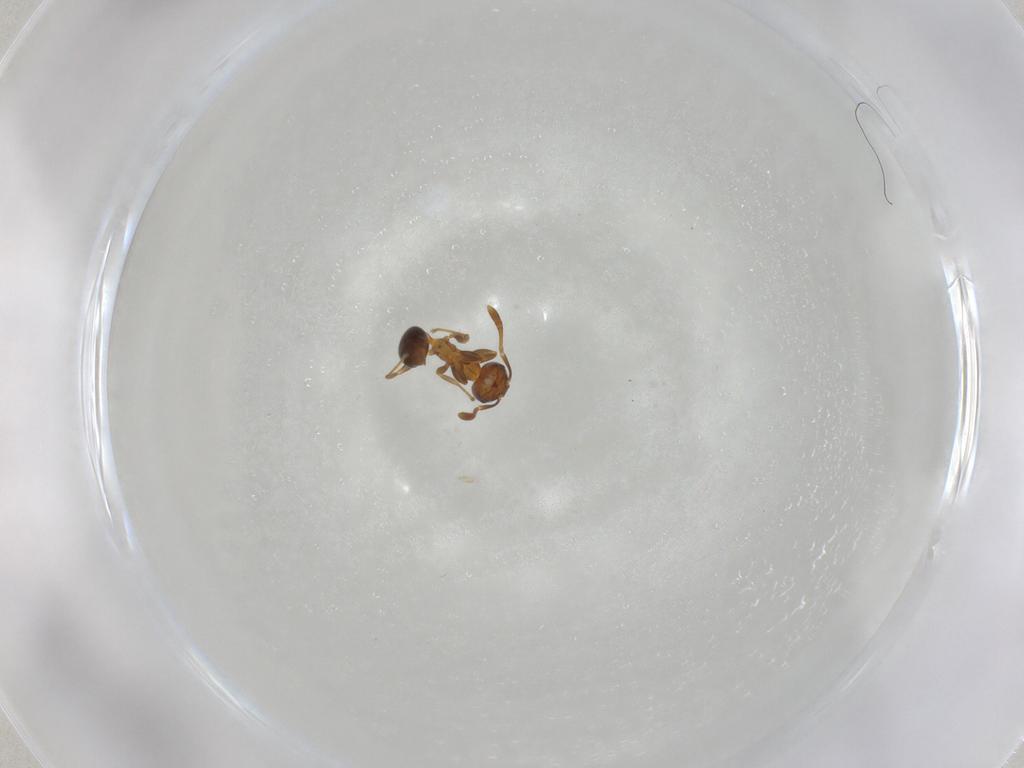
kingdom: Animalia
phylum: Arthropoda
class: Insecta
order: Hymenoptera
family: Formicidae
